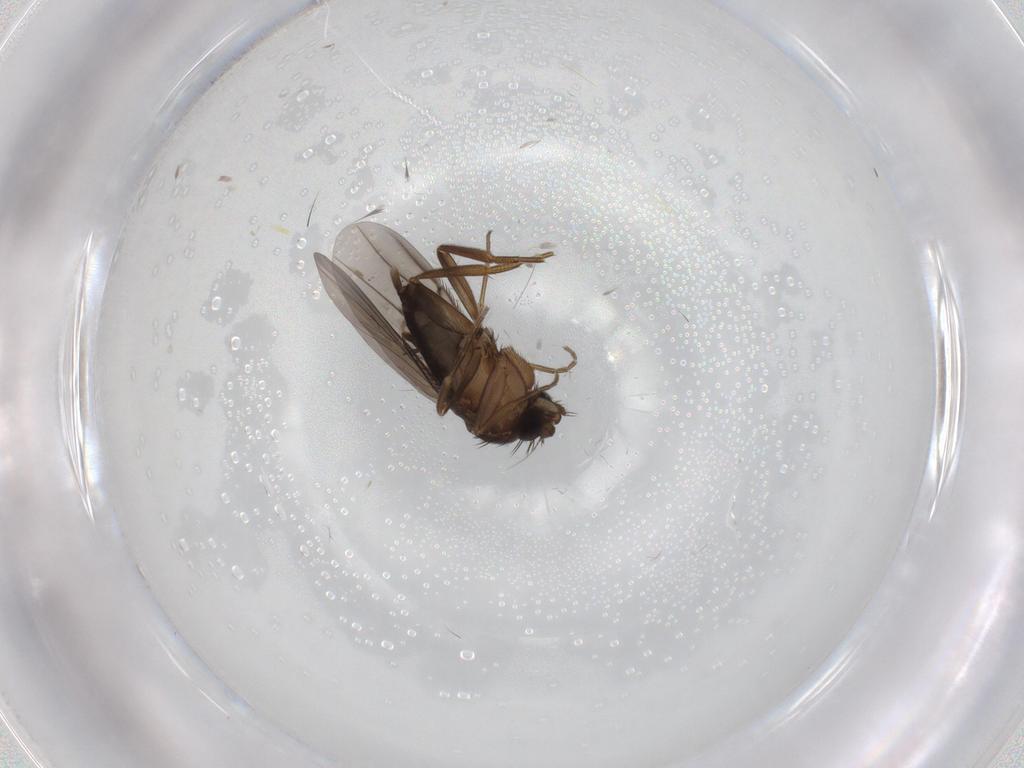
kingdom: Animalia
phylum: Arthropoda
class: Insecta
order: Diptera
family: Phoridae
